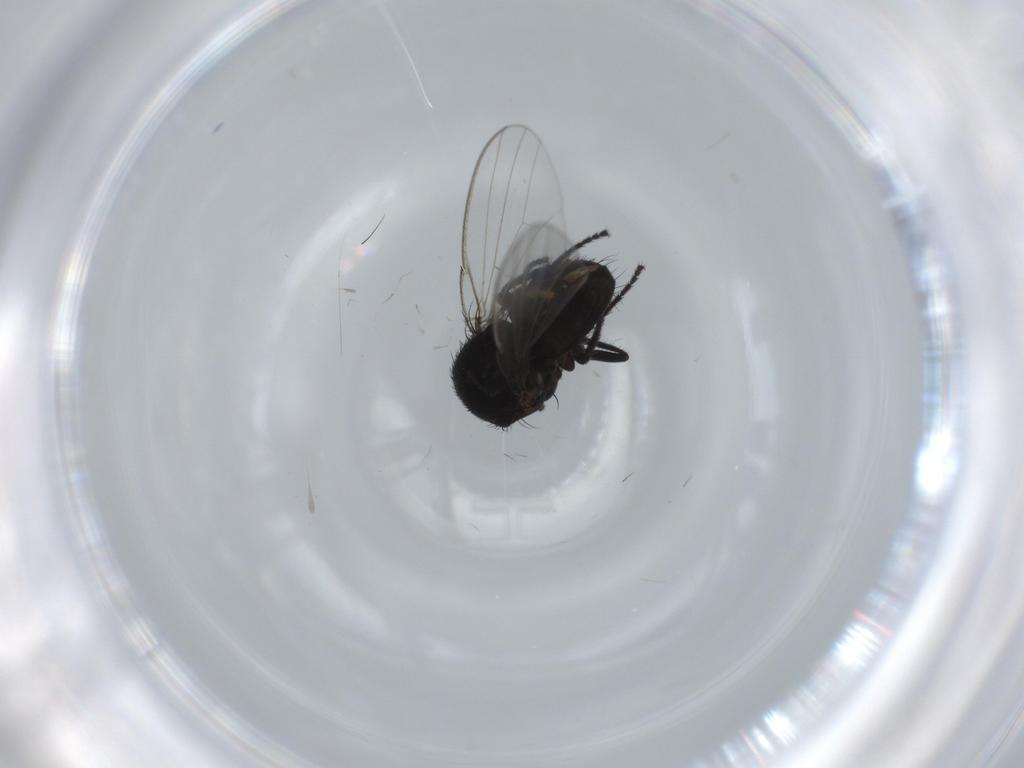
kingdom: Animalia
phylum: Arthropoda
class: Insecta
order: Diptera
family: Milichiidae
